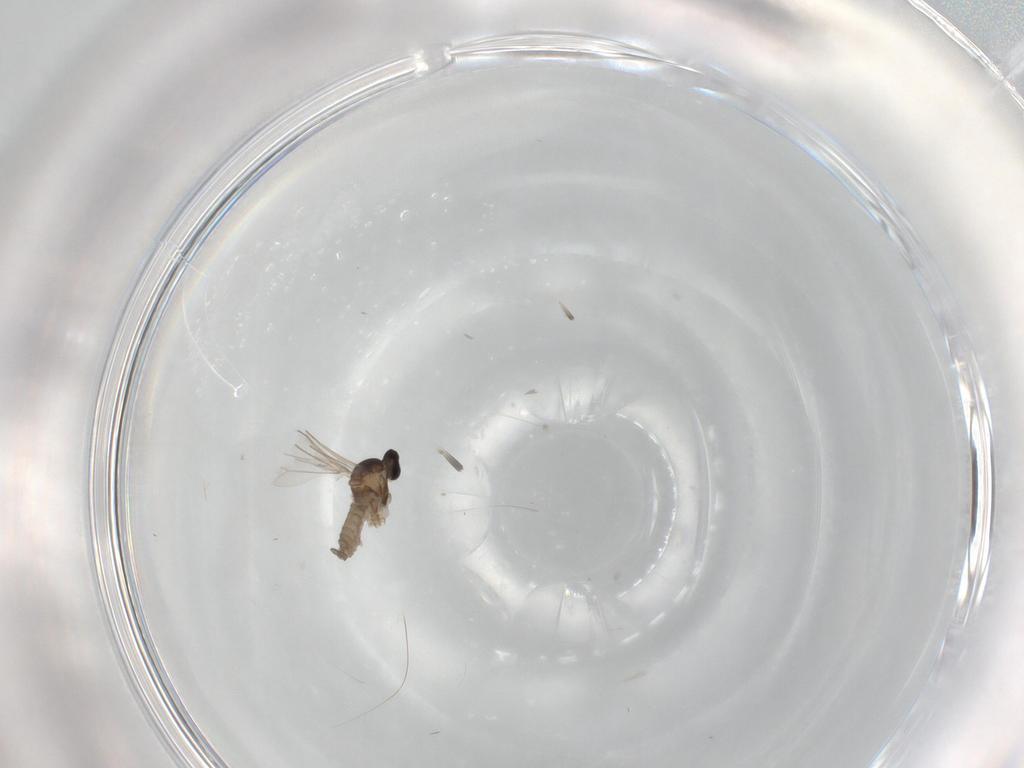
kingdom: Animalia
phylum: Arthropoda
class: Insecta
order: Diptera
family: Cecidomyiidae
